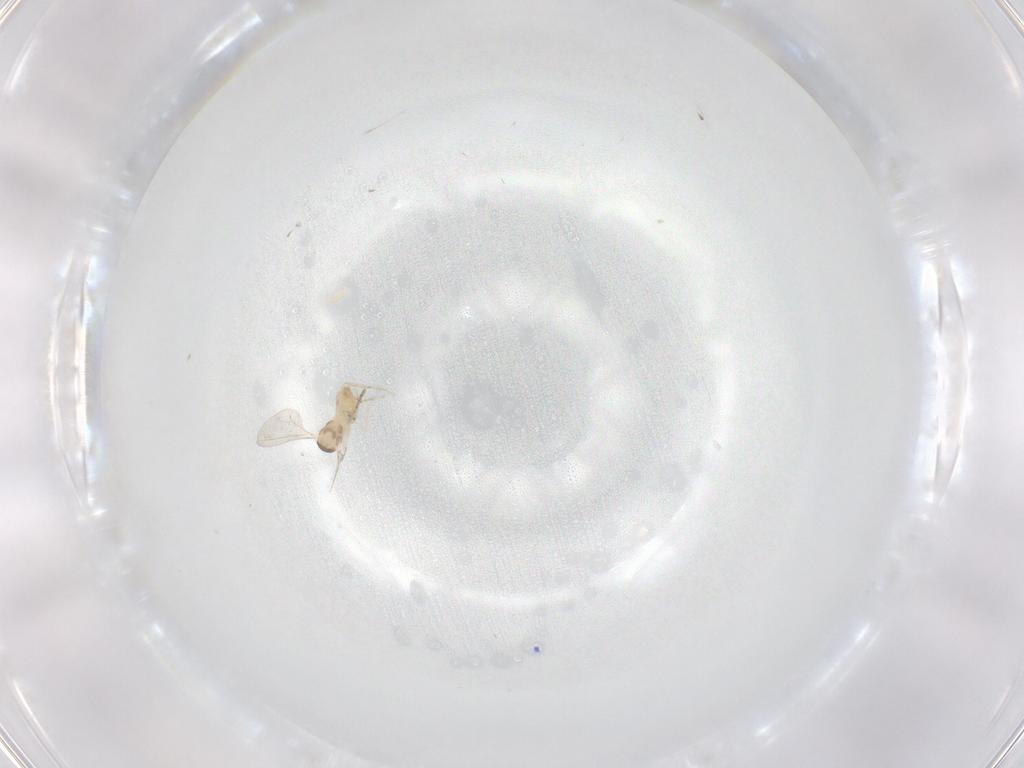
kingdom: Animalia
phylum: Arthropoda
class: Insecta
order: Diptera
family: Cecidomyiidae
